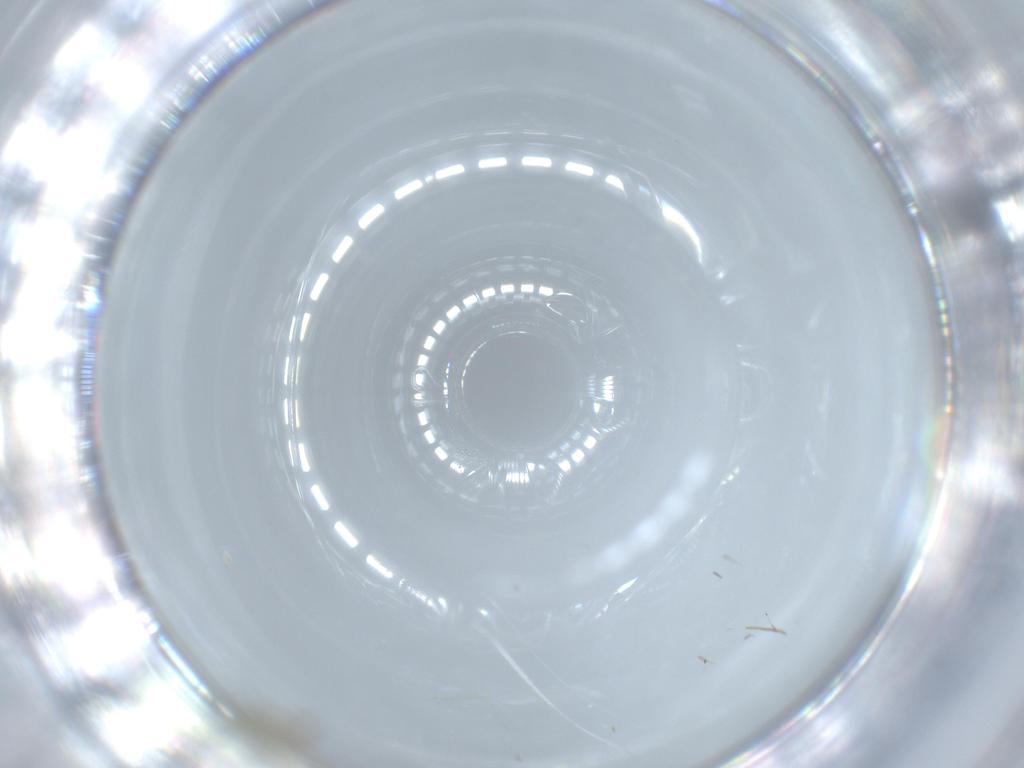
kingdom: Animalia
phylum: Arthropoda
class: Insecta
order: Diptera
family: Chironomidae
